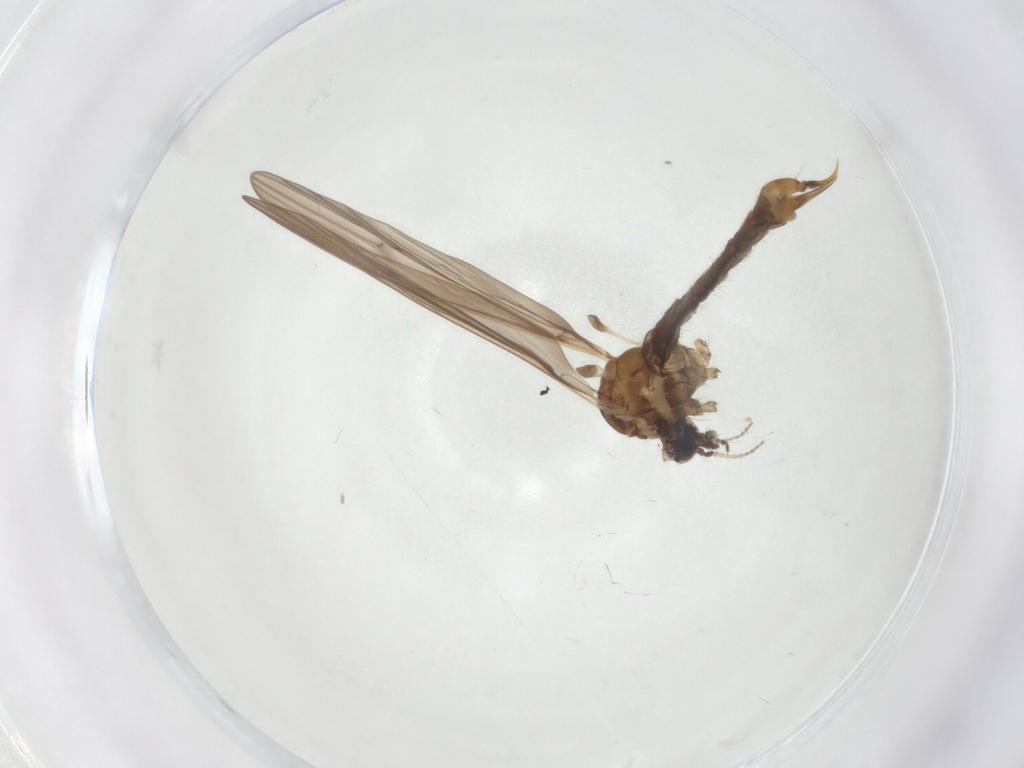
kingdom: Animalia
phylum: Arthropoda
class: Insecta
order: Diptera
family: Limoniidae
